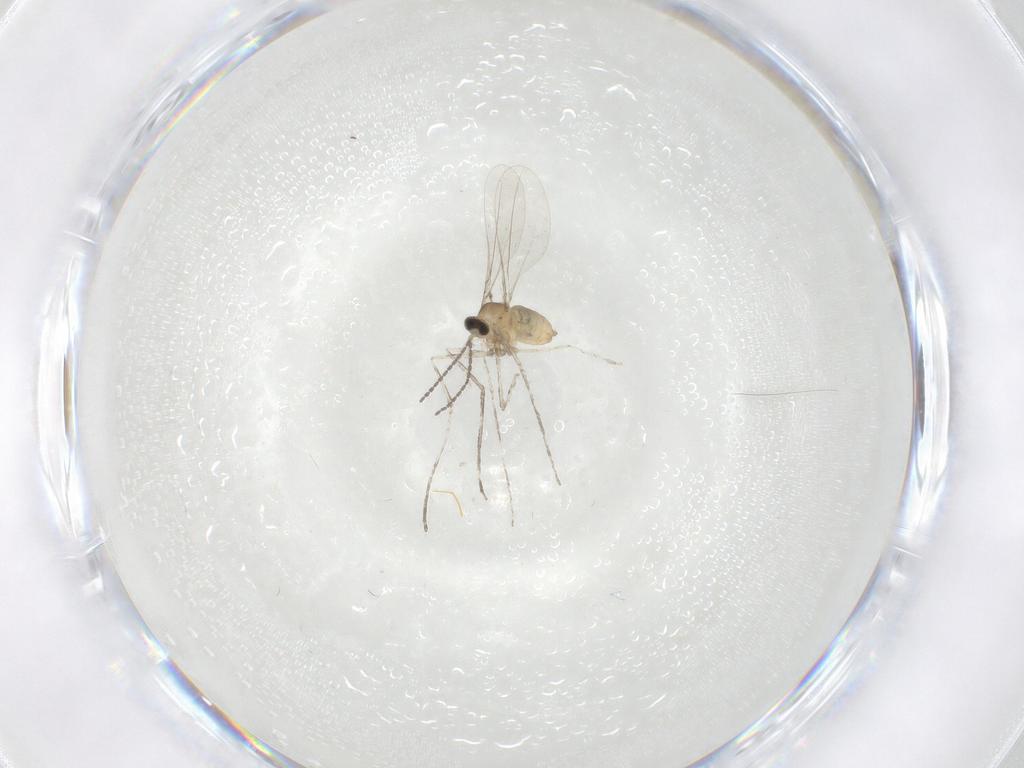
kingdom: Animalia
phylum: Arthropoda
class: Insecta
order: Diptera
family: Cecidomyiidae
